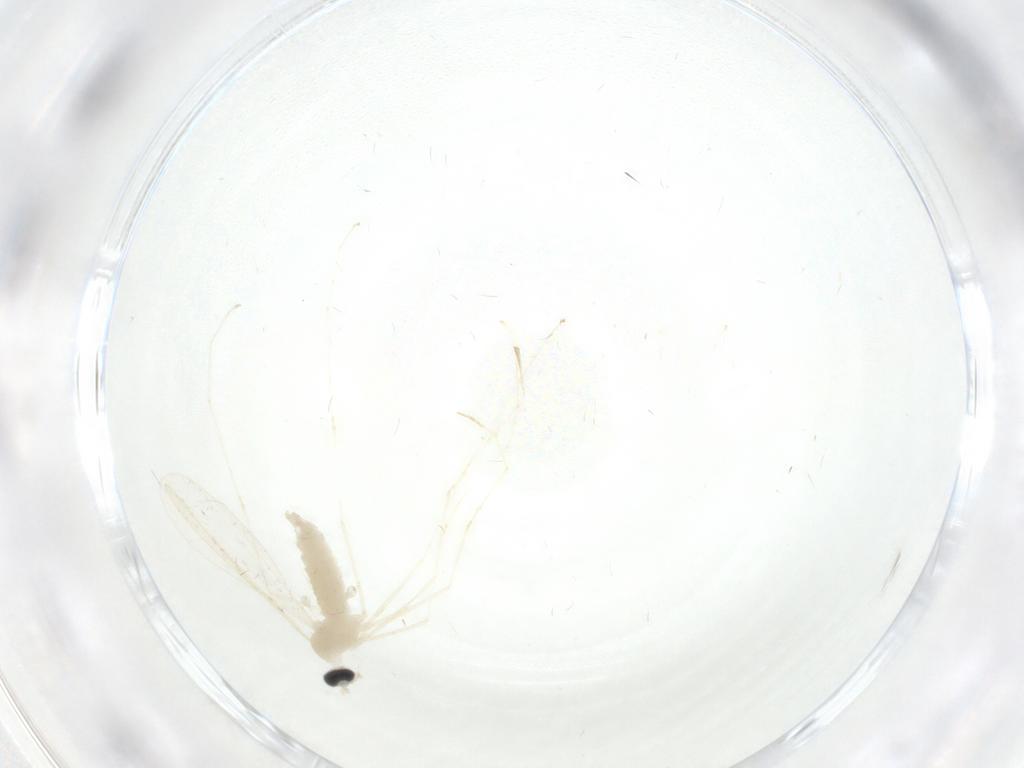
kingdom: Animalia
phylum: Arthropoda
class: Insecta
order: Diptera
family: Cecidomyiidae
